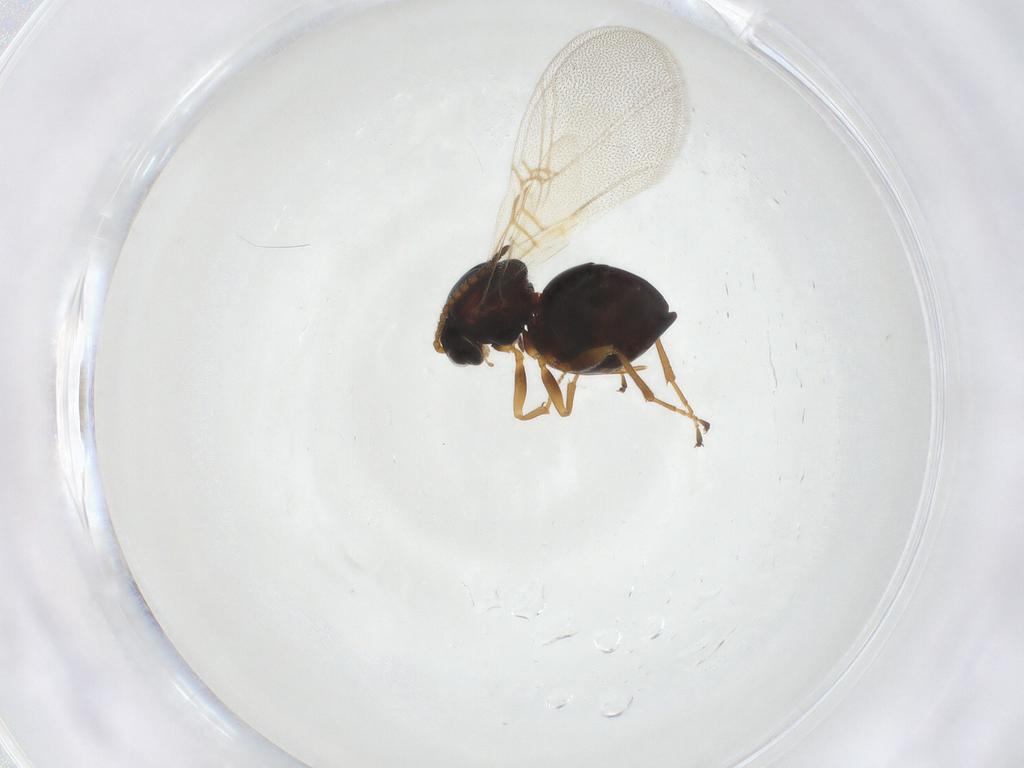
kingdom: Animalia
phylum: Arthropoda
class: Insecta
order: Hymenoptera
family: Cynipidae
